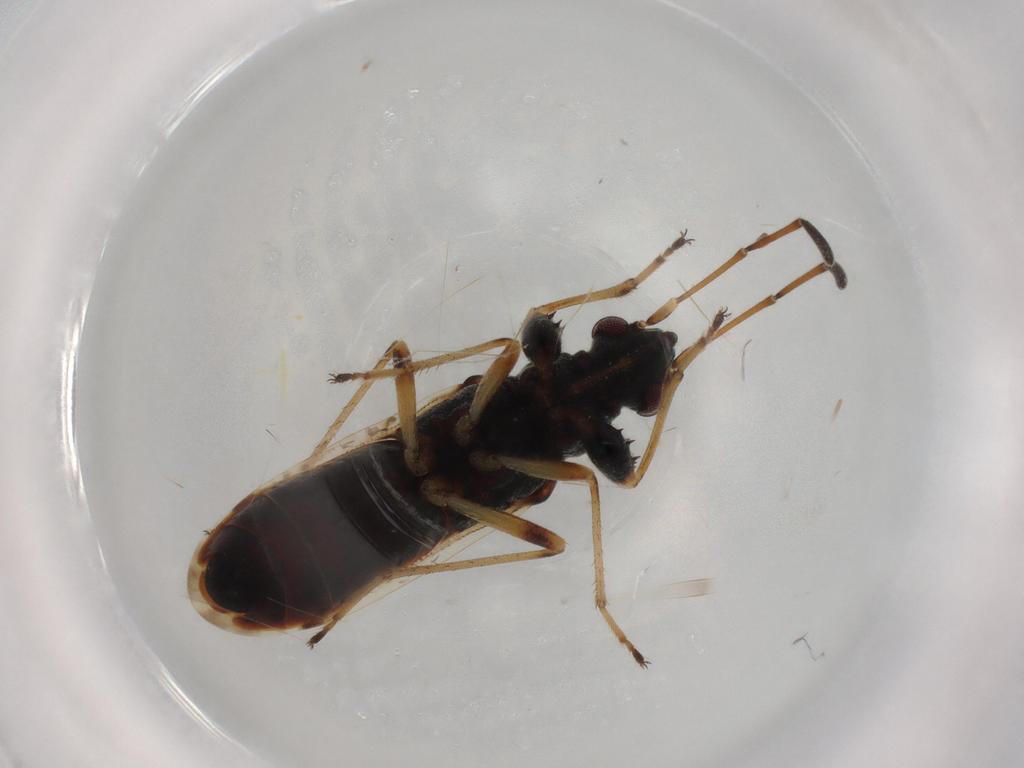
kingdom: Animalia
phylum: Arthropoda
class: Insecta
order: Hemiptera
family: Rhyparochromidae
